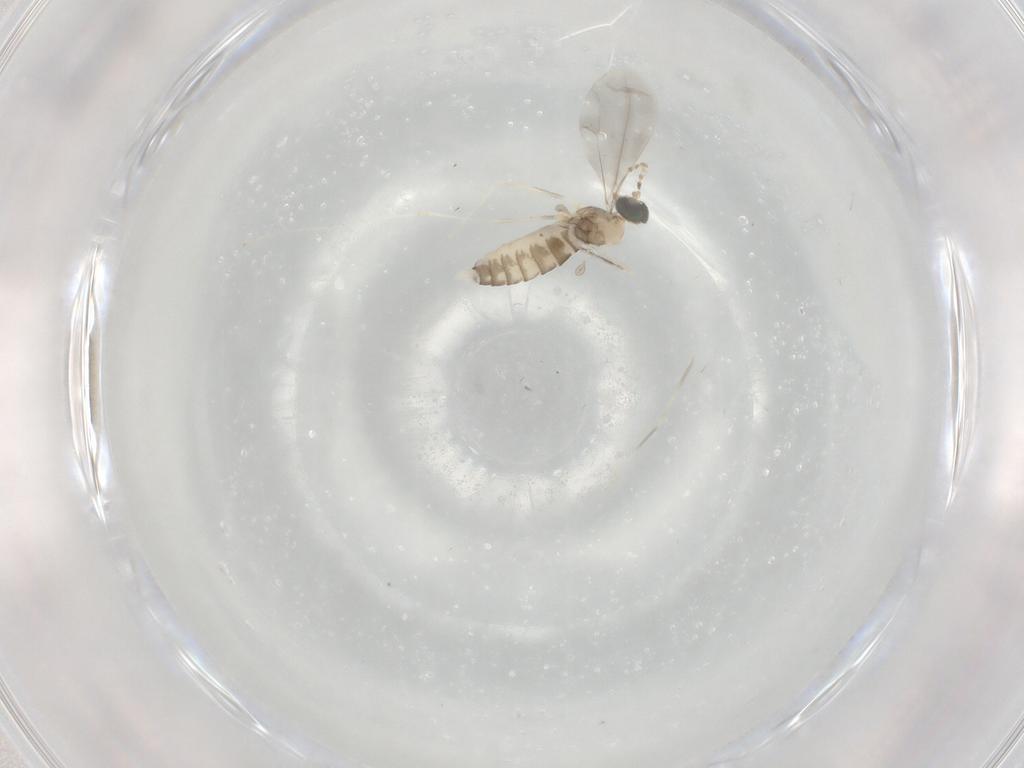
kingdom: Animalia
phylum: Arthropoda
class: Insecta
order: Diptera
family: Cecidomyiidae
